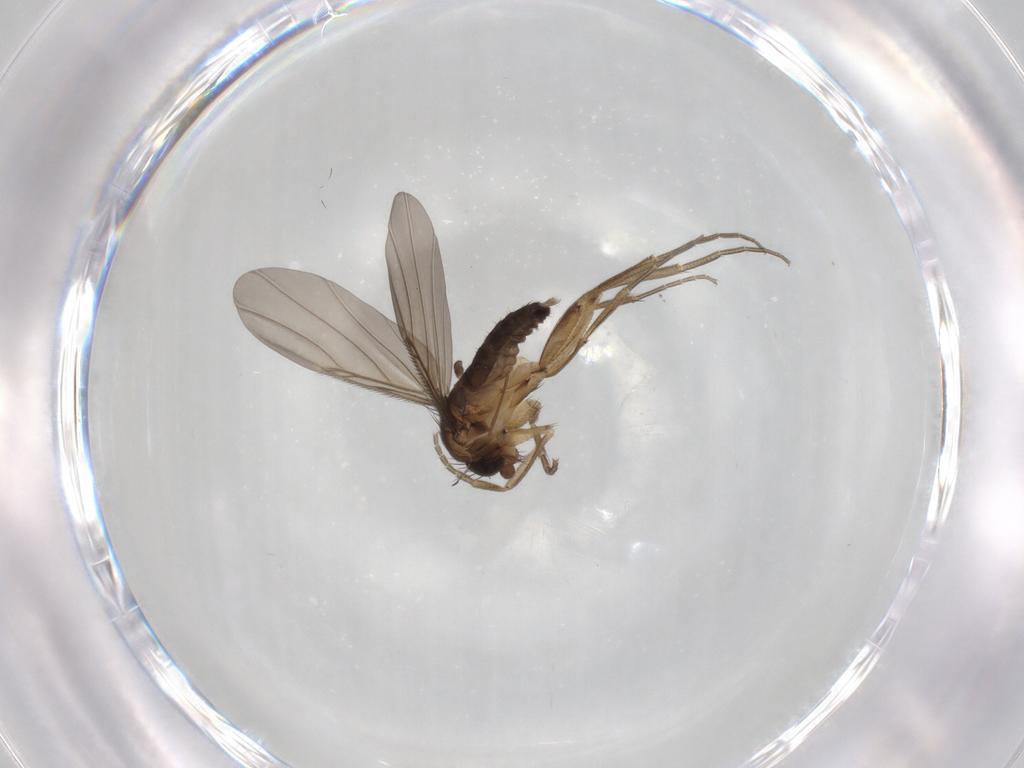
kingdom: Animalia
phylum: Arthropoda
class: Insecta
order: Diptera
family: Phoridae
